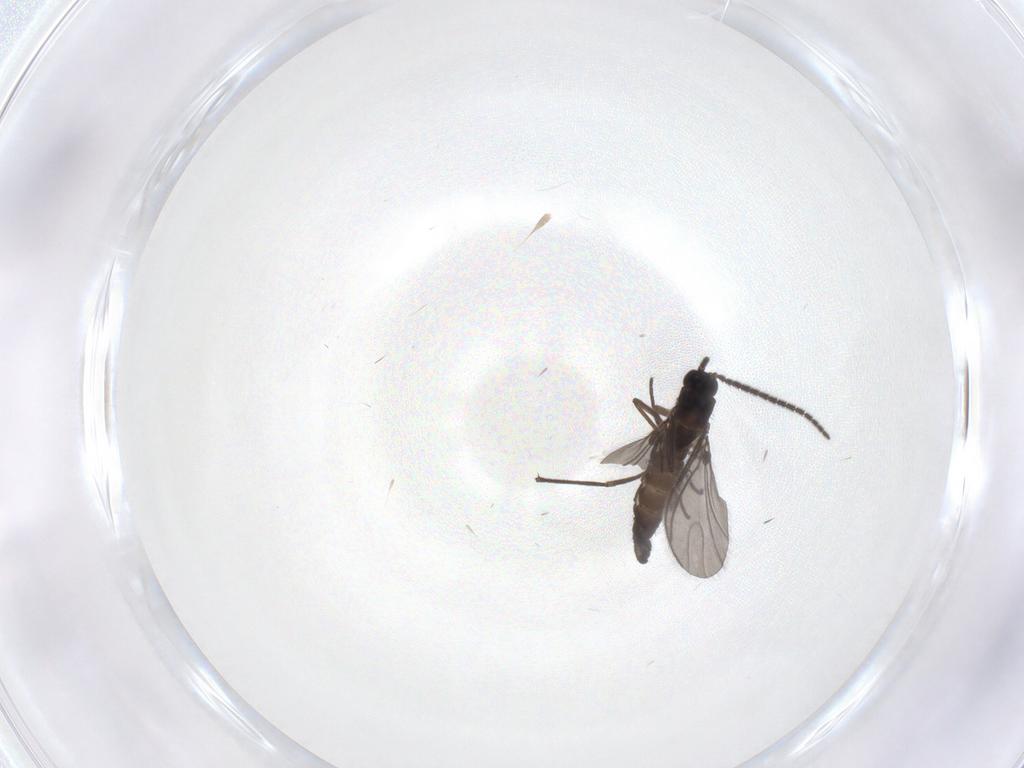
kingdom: Animalia
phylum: Arthropoda
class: Insecta
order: Diptera
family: Sciaridae
